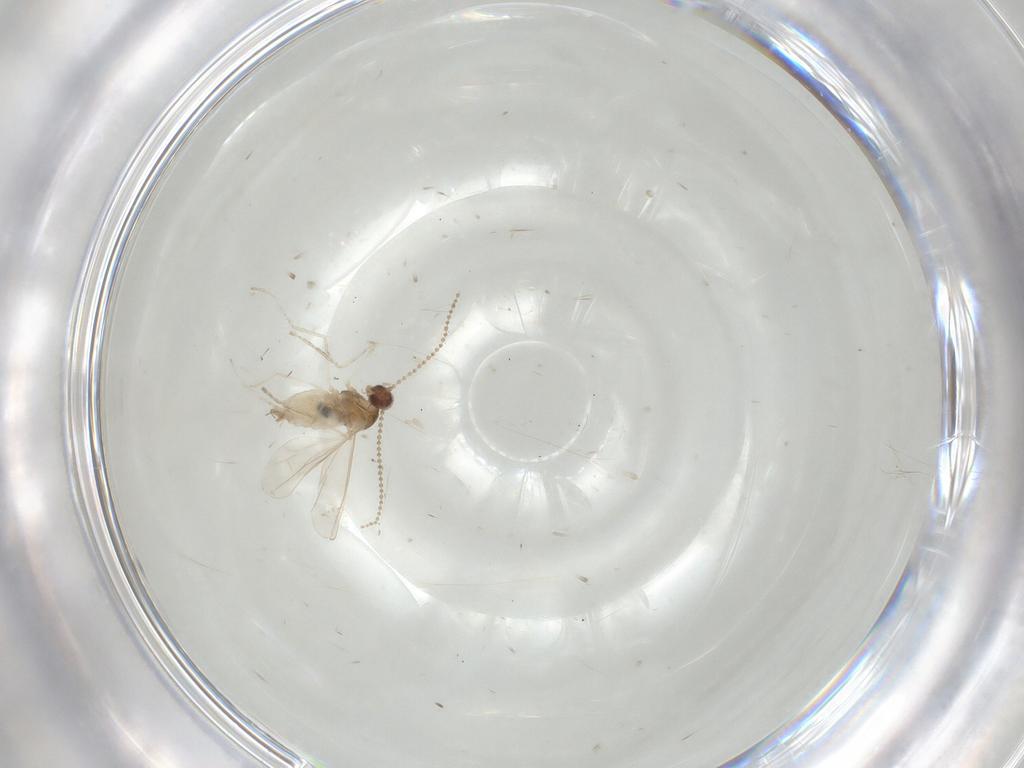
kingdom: Animalia
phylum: Arthropoda
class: Insecta
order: Diptera
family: Cecidomyiidae
